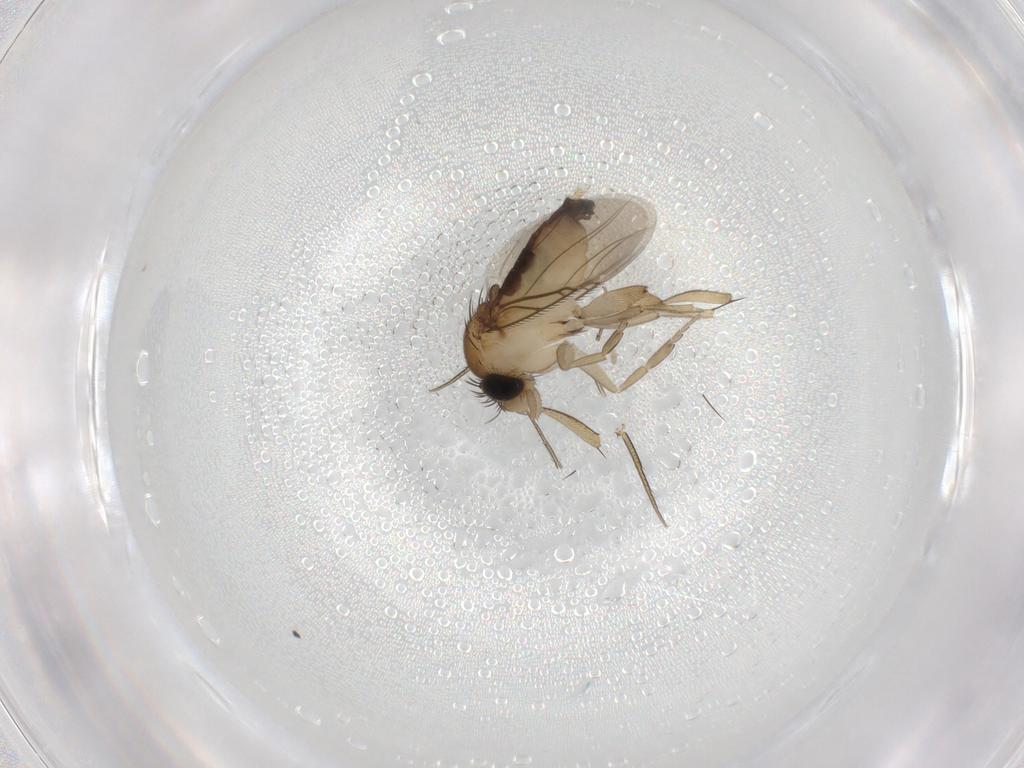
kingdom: Animalia
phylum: Arthropoda
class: Insecta
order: Diptera
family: Phoridae
